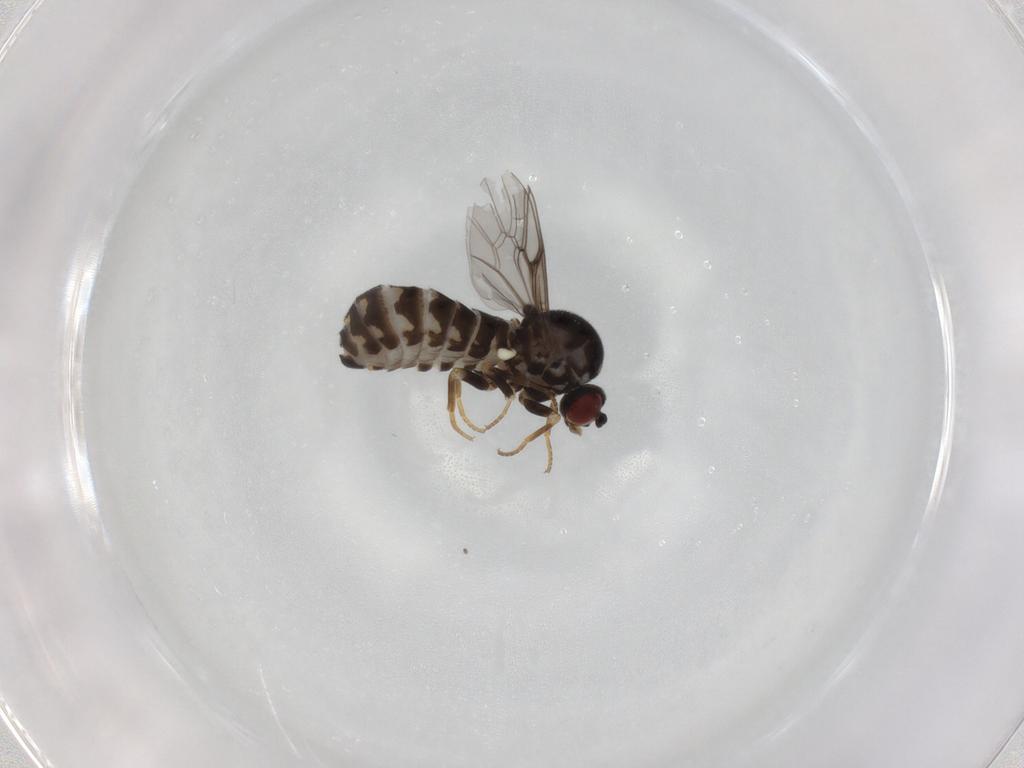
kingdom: Animalia
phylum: Arthropoda
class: Insecta
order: Diptera
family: Bombyliidae
